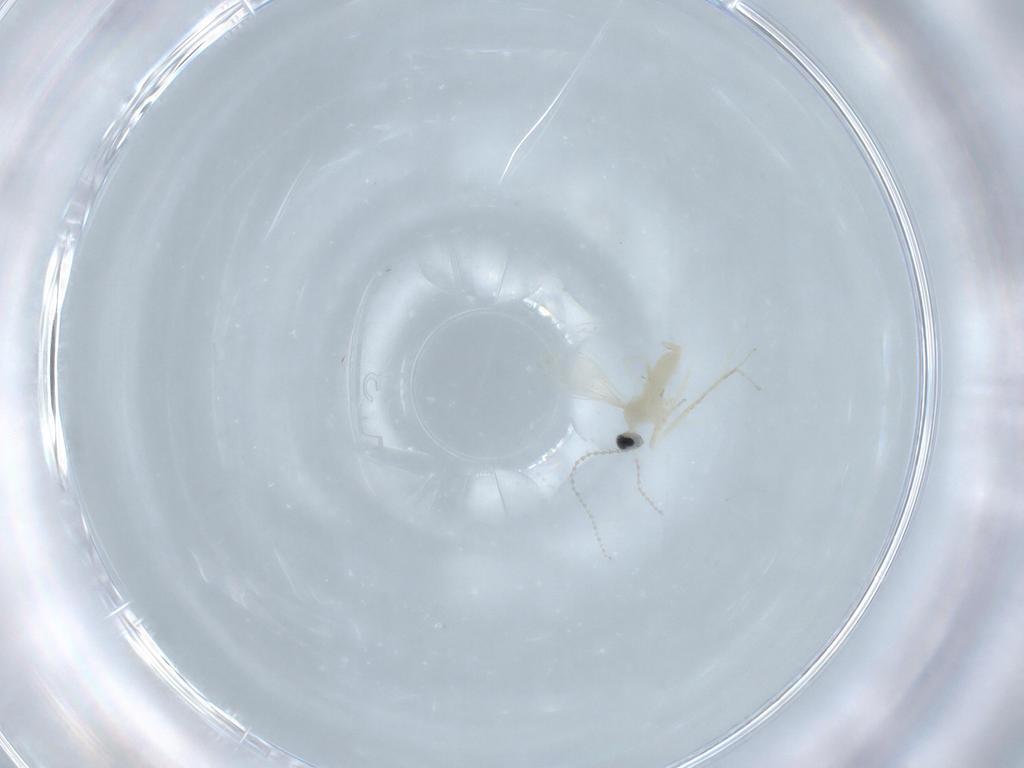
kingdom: Animalia
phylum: Arthropoda
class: Insecta
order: Diptera
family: Cecidomyiidae
